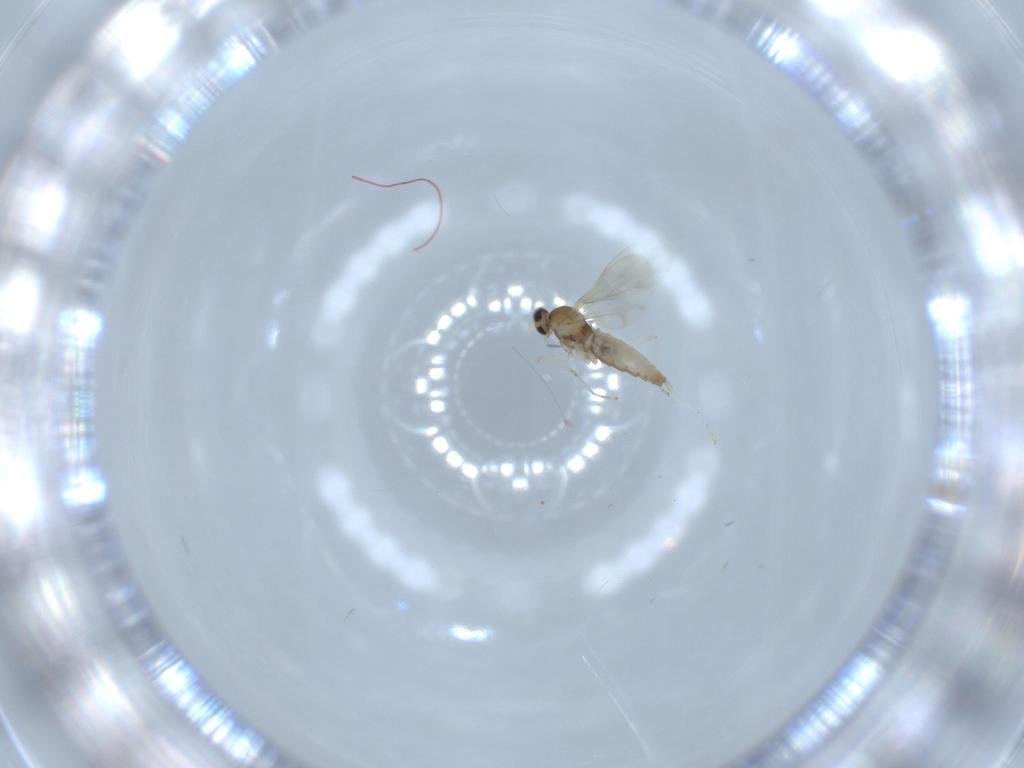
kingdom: Animalia
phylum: Arthropoda
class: Insecta
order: Diptera
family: Cecidomyiidae
